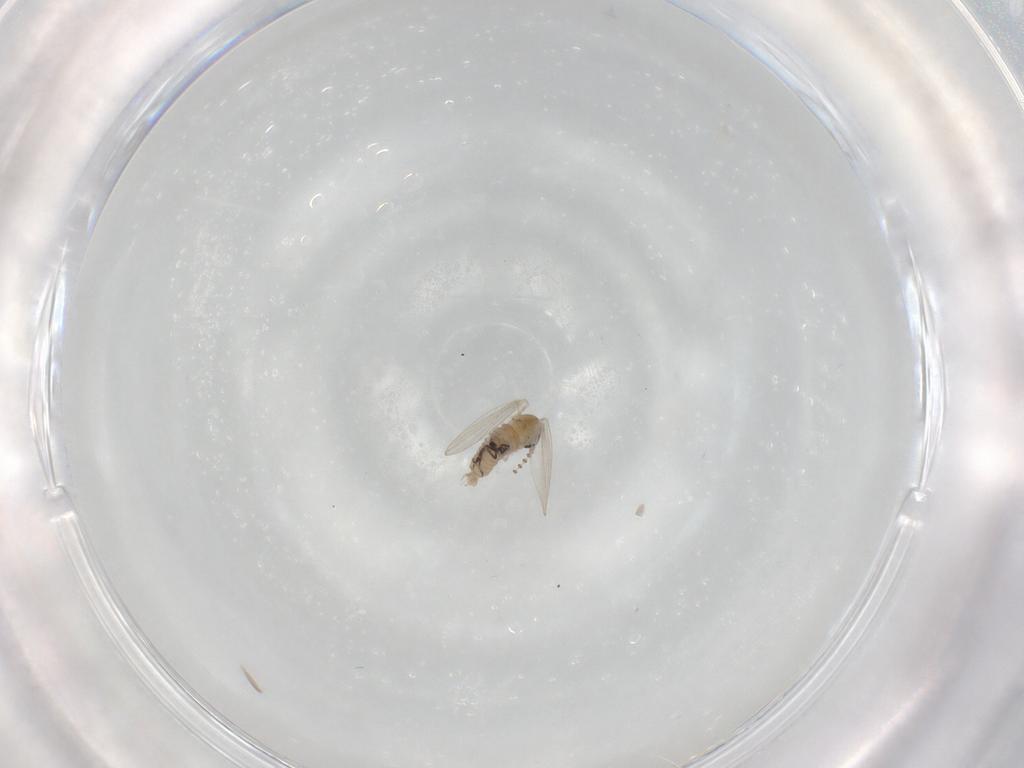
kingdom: Animalia
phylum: Arthropoda
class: Insecta
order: Diptera
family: Psychodidae
